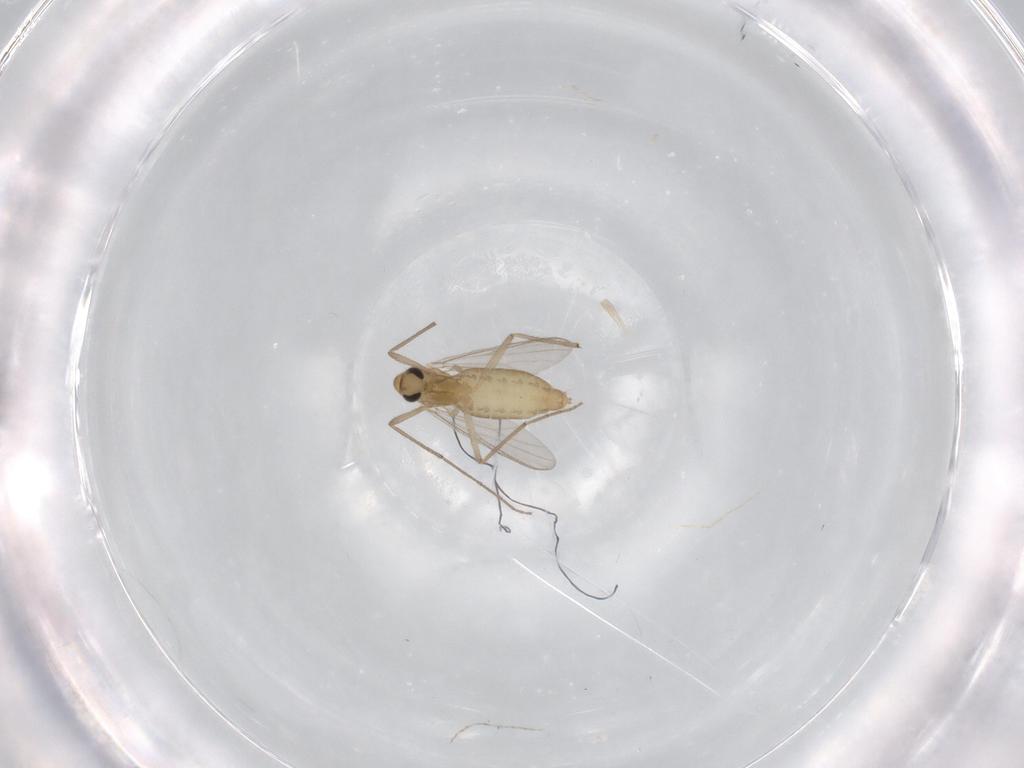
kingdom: Animalia
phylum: Arthropoda
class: Insecta
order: Diptera
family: Chironomidae
